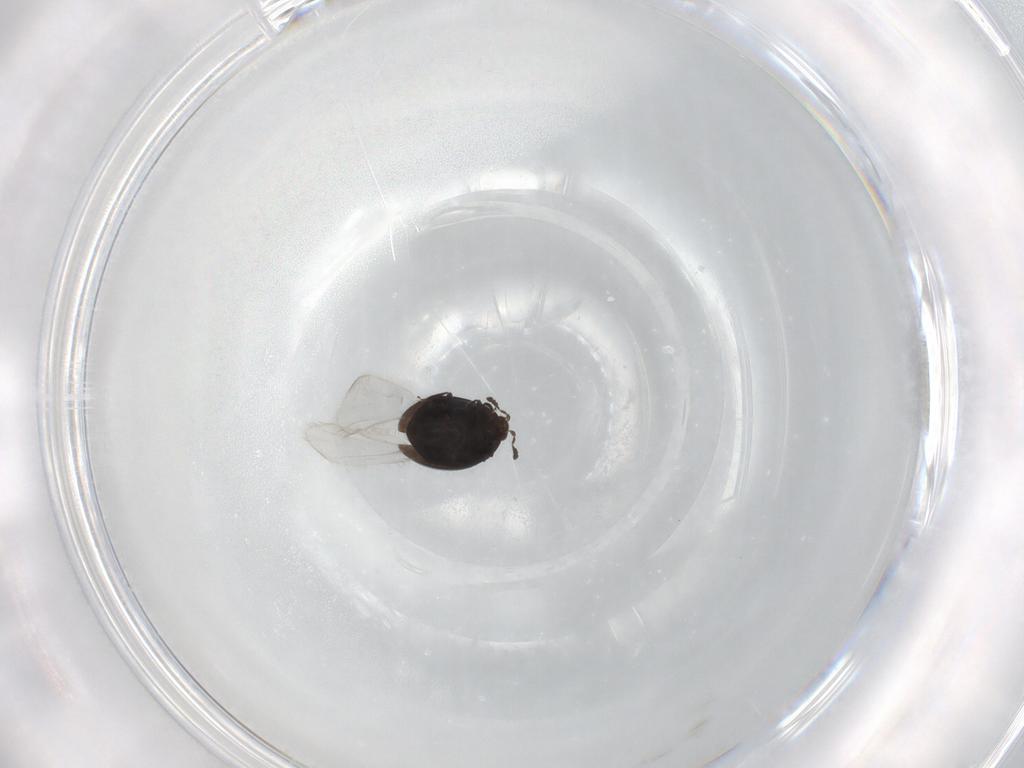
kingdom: Animalia
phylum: Arthropoda
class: Insecta
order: Coleoptera
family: Corylophidae
